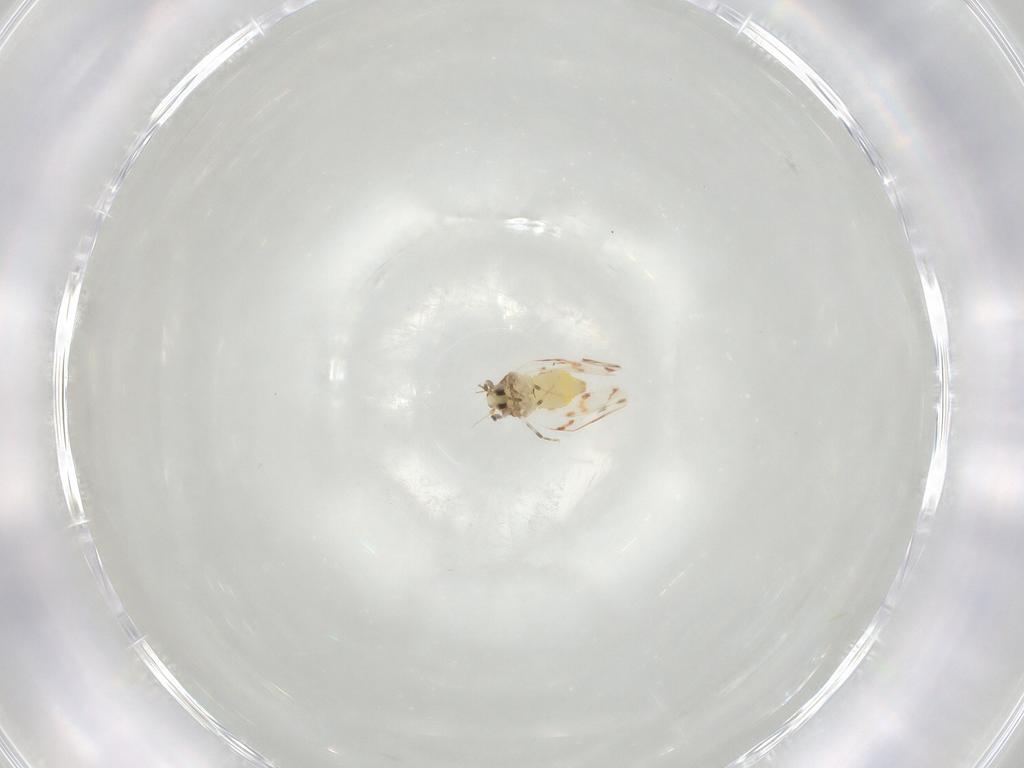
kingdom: Animalia
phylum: Arthropoda
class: Insecta
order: Hemiptera
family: Aleyrodidae
